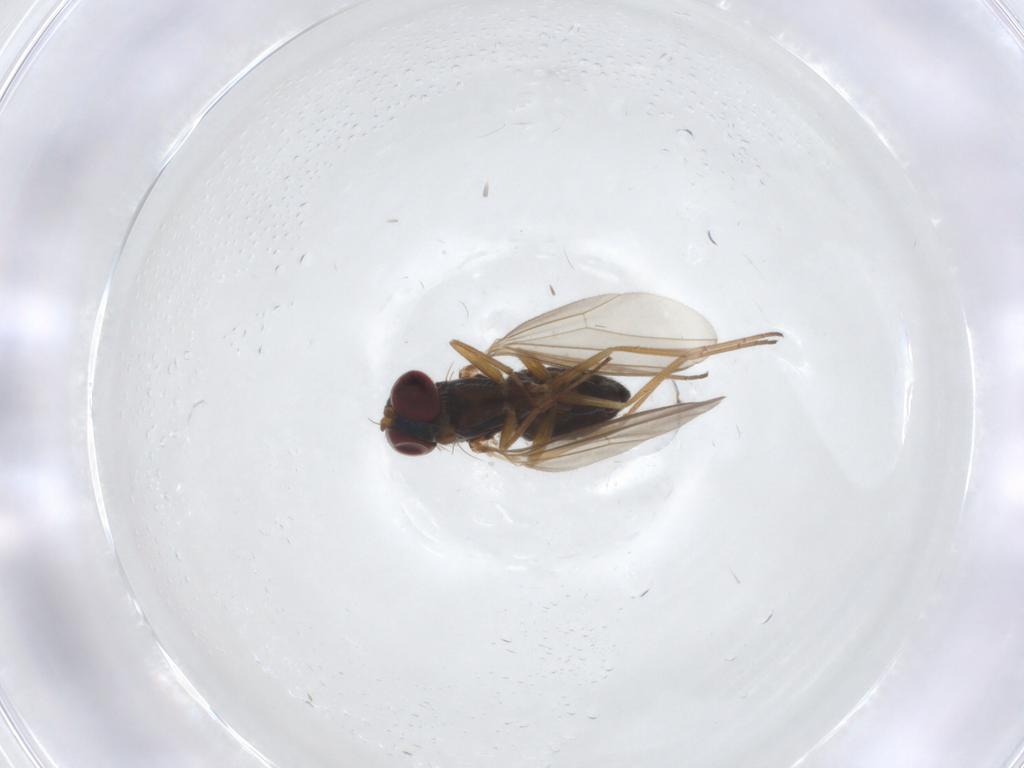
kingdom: Animalia
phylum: Arthropoda
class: Insecta
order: Diptera
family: Dolichopodidae
